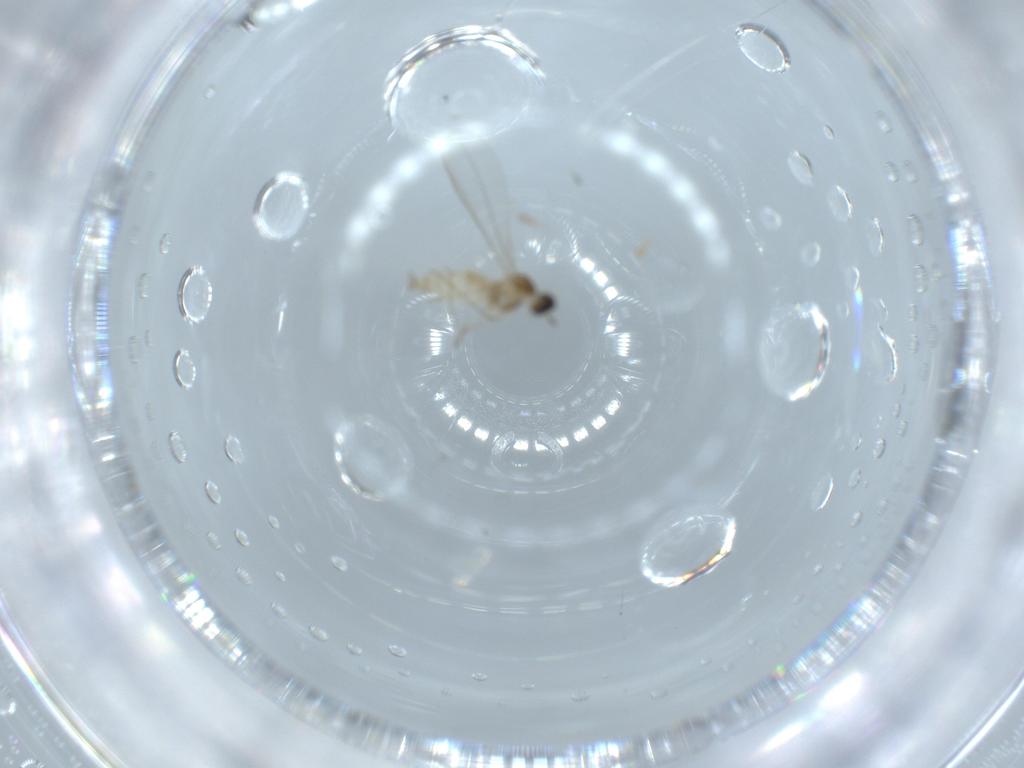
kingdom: Animalia
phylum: Arthropoda
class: Insecta
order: Diptera
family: Cecidomyiidae
